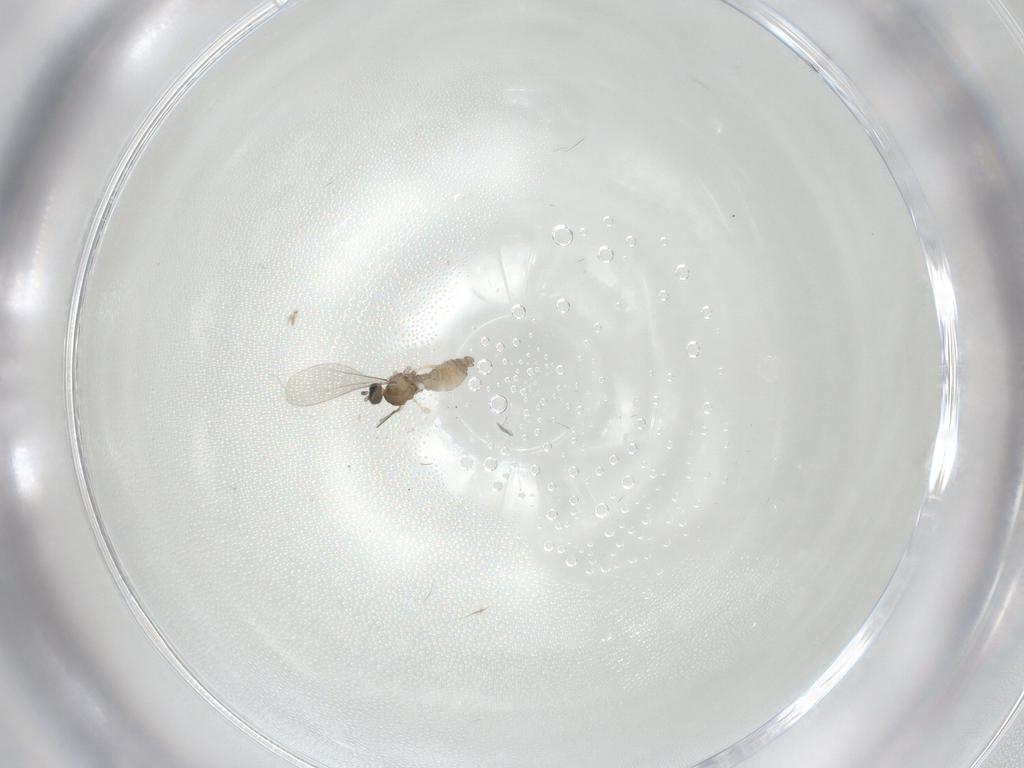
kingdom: Animalia
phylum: Arthropoda
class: Insecta
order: Diptera
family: Ceratopogonidae
